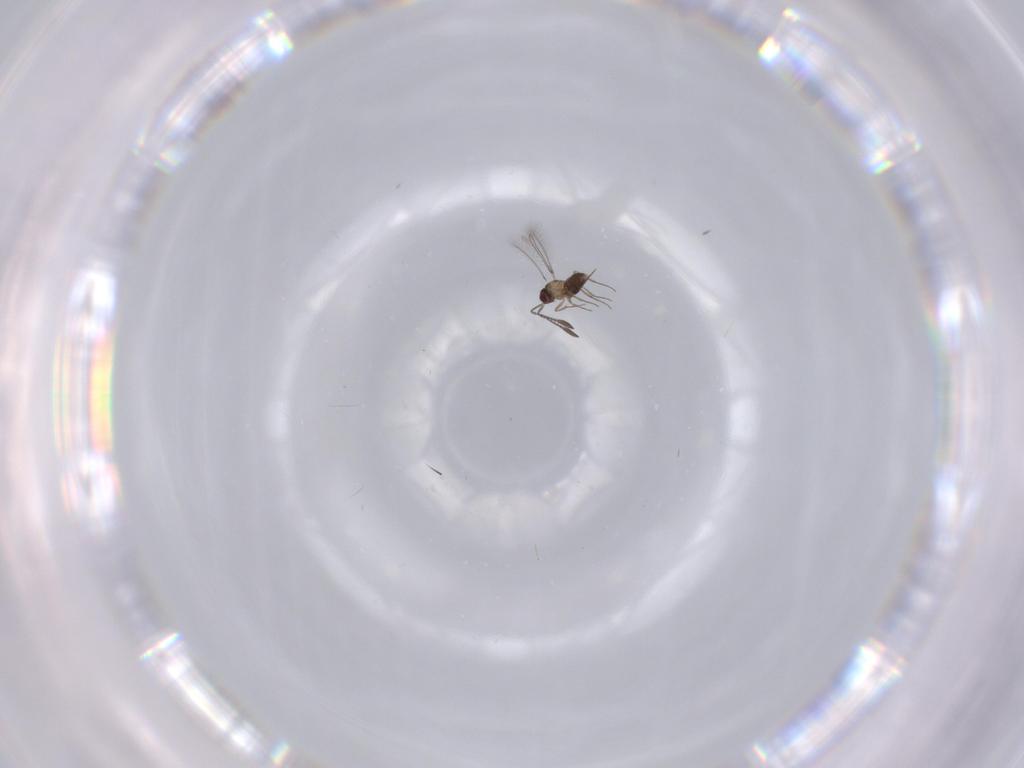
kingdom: Animalia
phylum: Arthropoda
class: Insecta
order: Hymenoptera
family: Mymaridae
